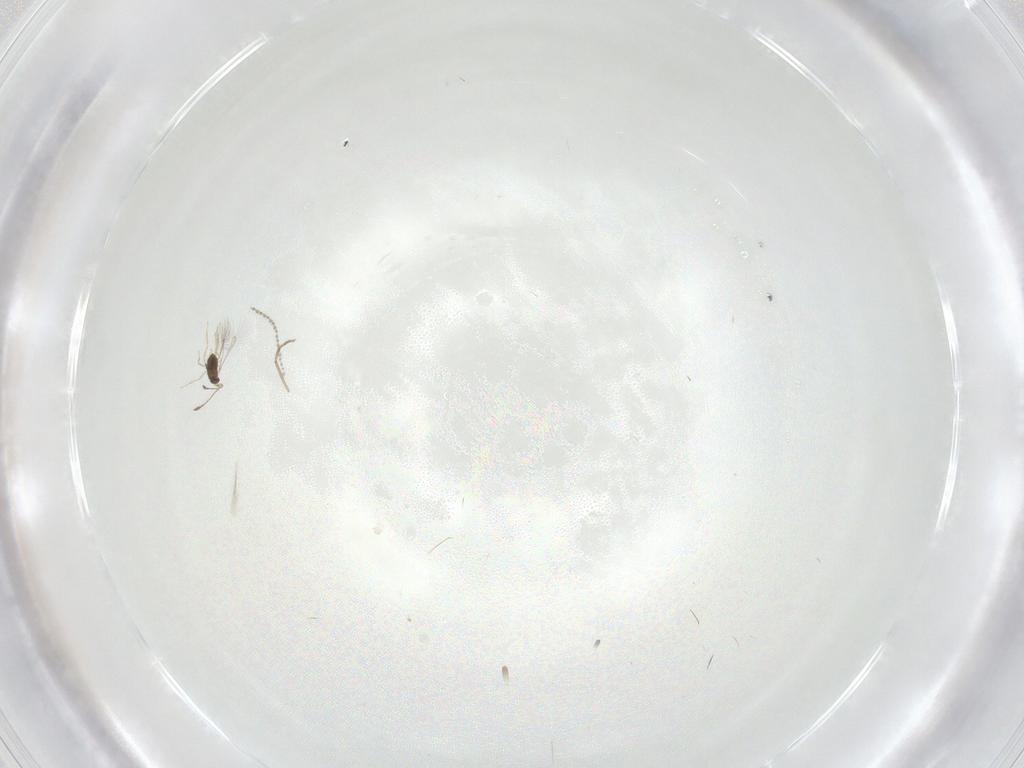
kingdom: Animalia
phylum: Arthropoda
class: Insecta
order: Hymenoptera
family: Braconidae
